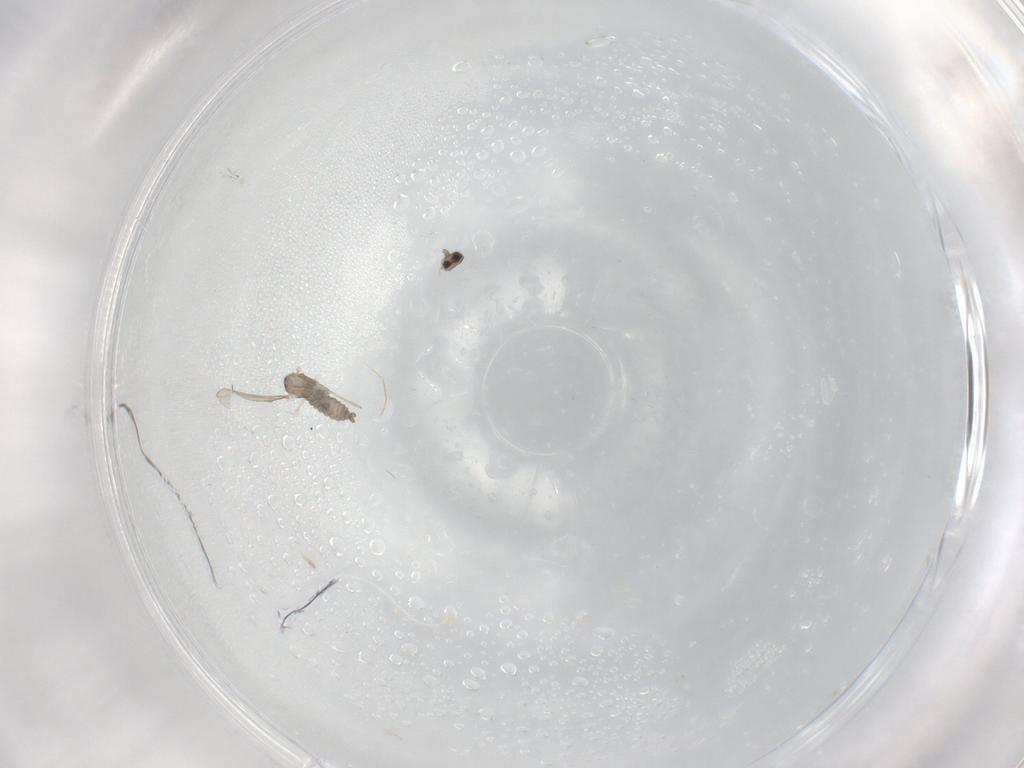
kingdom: Animalia
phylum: Arthropoda
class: Insecta
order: Diptera
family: Cecidomyiidae
